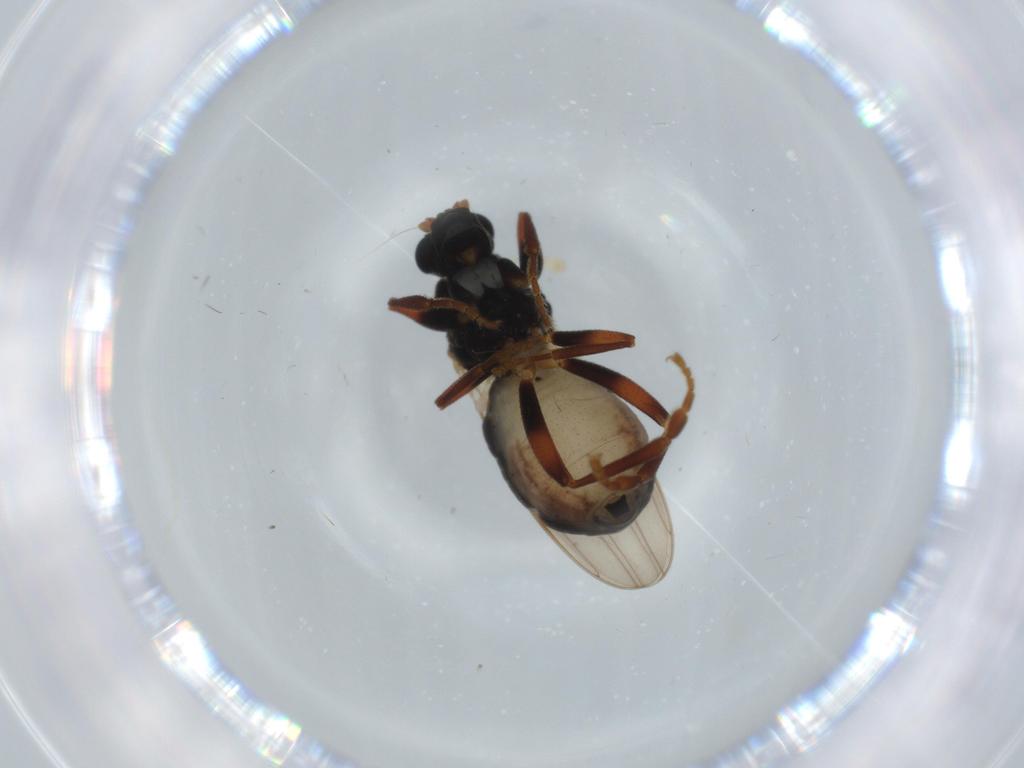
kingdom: Animalia
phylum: Arthropoda
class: Insecta
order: Diptera
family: Sphaeroceridae
